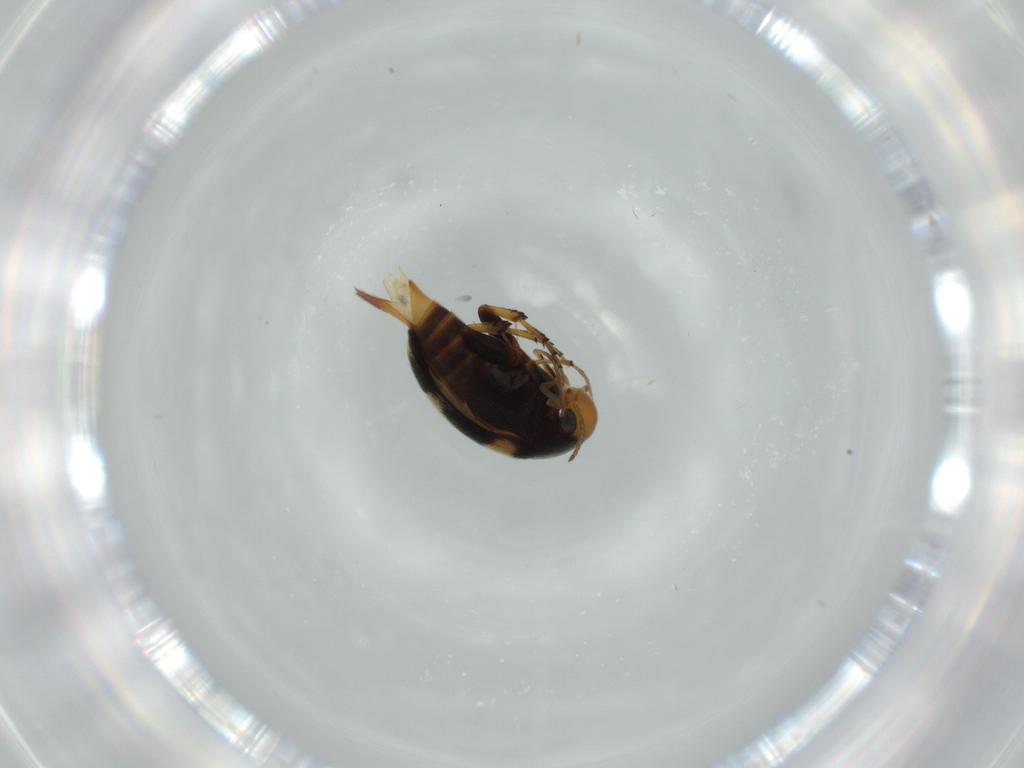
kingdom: Animalia
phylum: Arthropoda
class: Insecta
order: Coleoptera
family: Mordellidae
